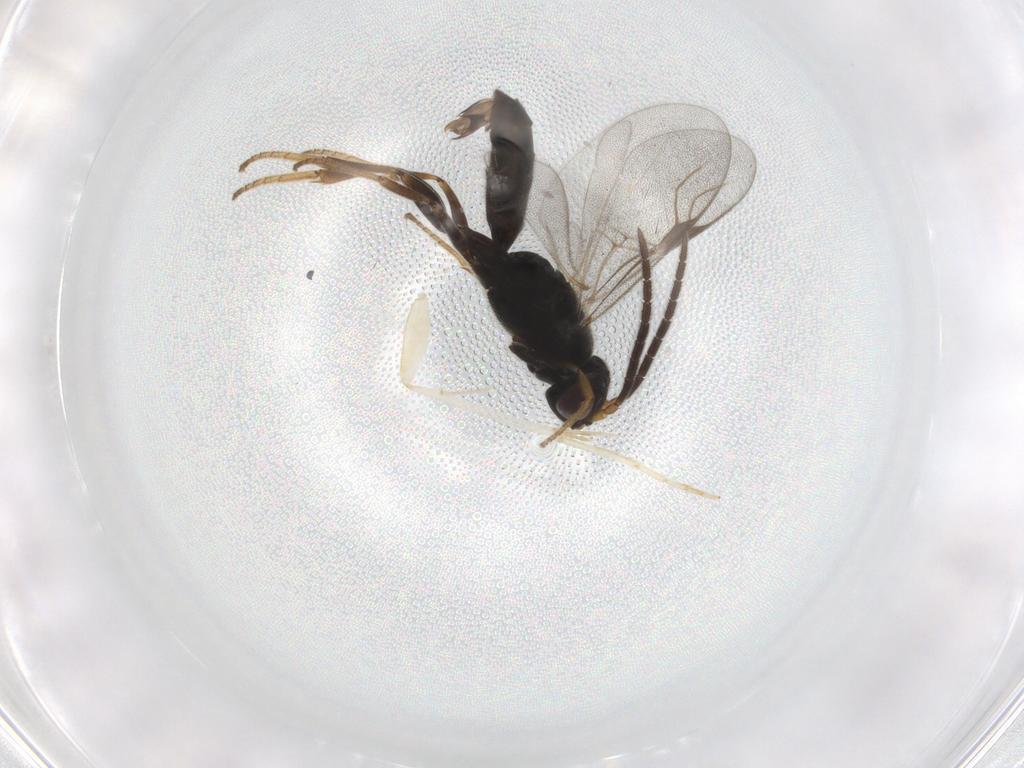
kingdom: Animalia
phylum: Arthropoda
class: Insecta
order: Hymenoptera
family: Dryinidae
